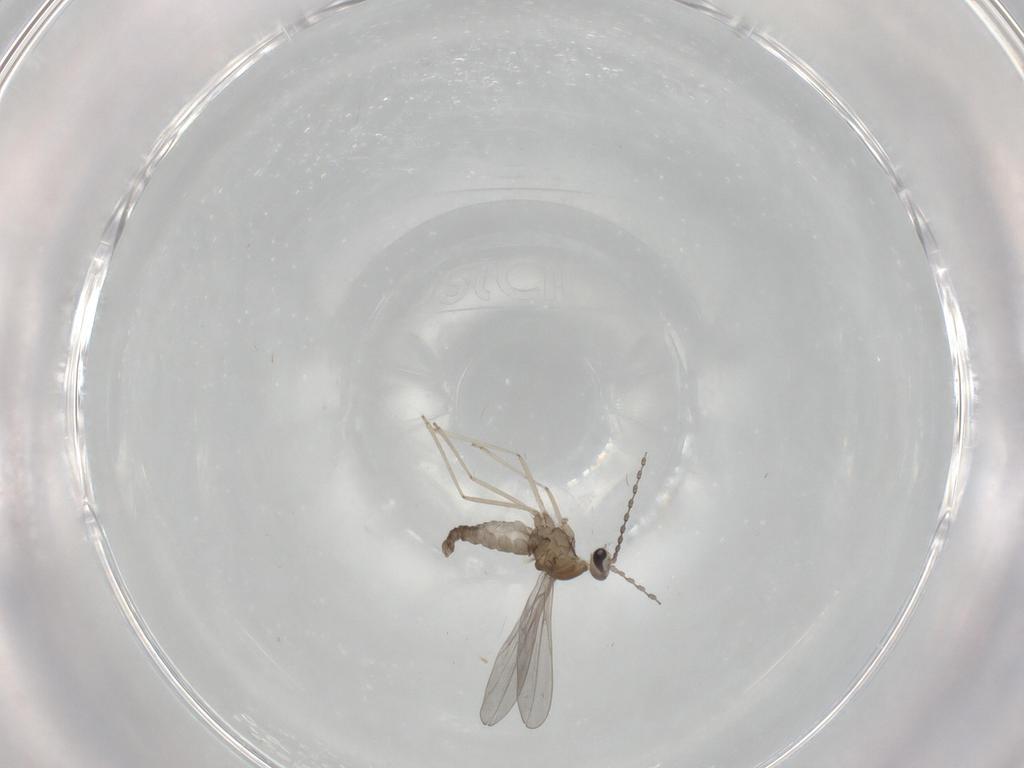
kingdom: Animalia
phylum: Arthropoda
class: Insecta
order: Diptera
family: Cecidomyiidae
